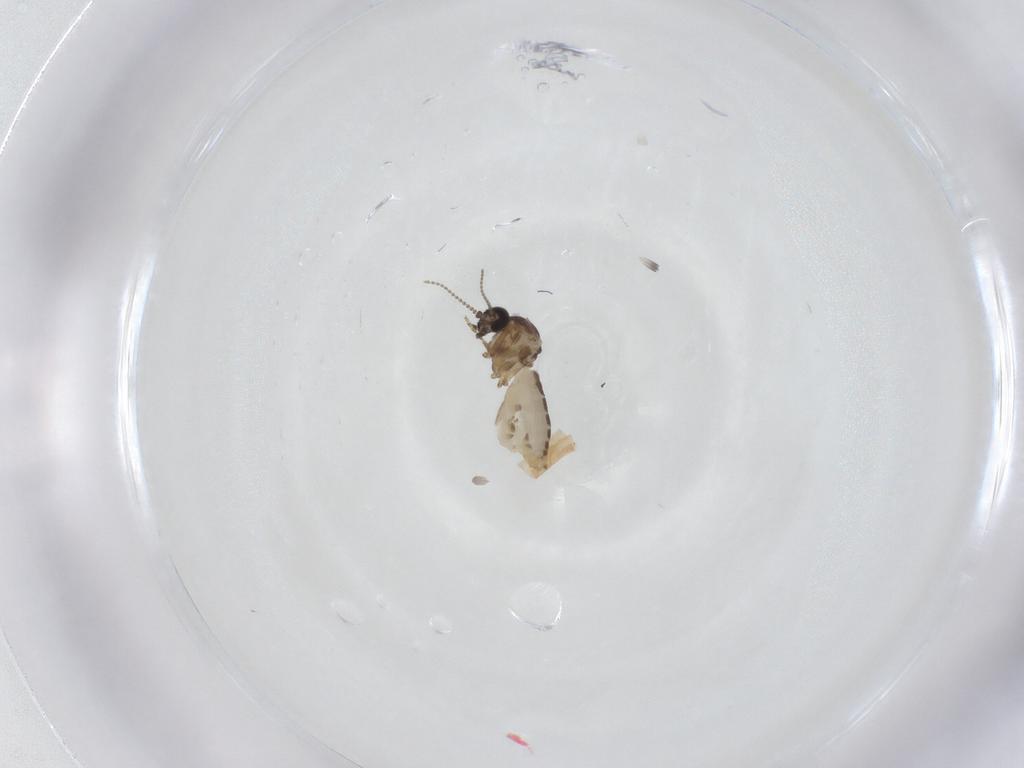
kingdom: Animalia
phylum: Arthropoda
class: Insecta
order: Diptera
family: Ceratopogonidae
